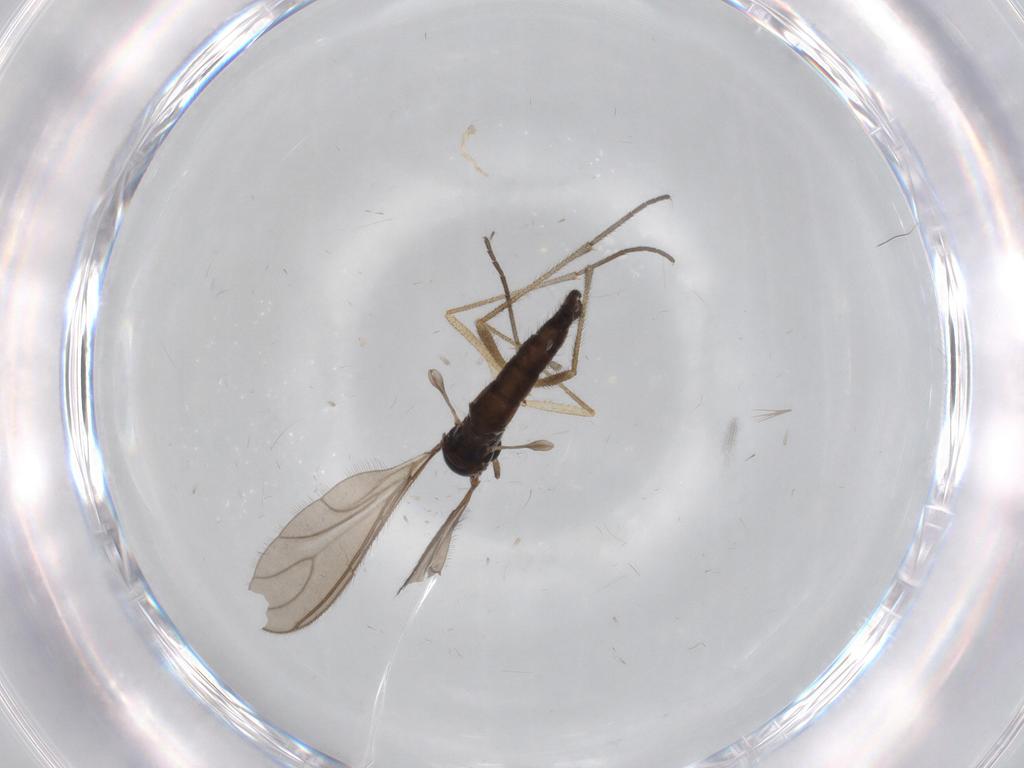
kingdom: Animalia
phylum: Arthropoda
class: Insecta
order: Diptera
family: Sciaridae
